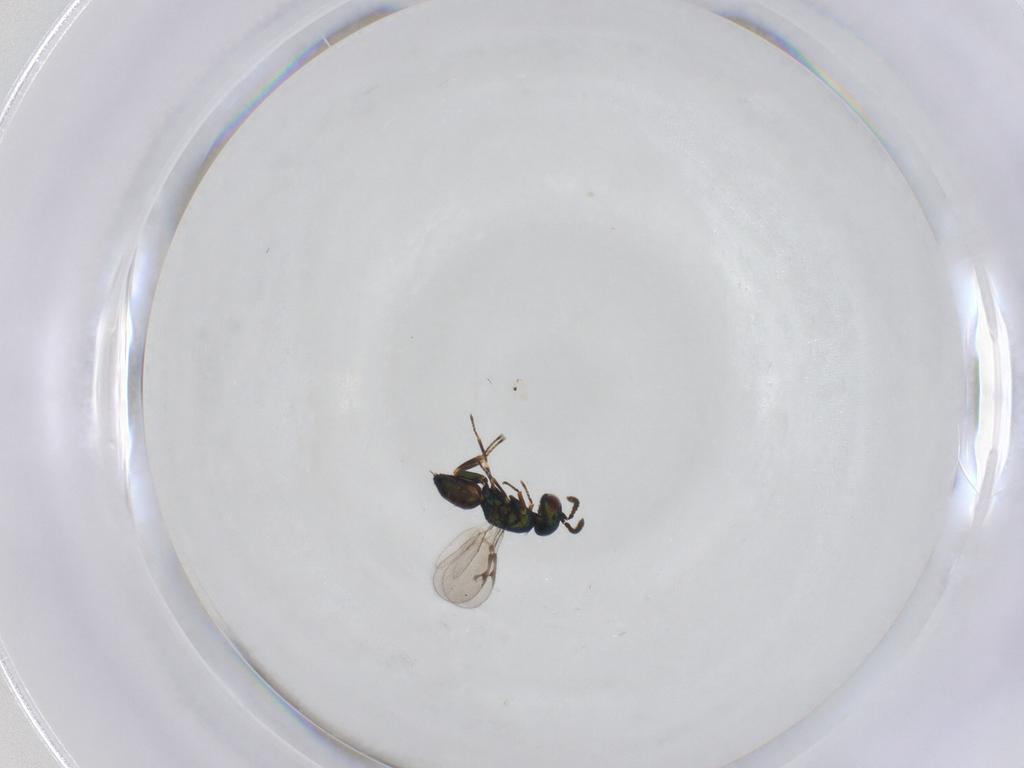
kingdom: Animalia
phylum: Arthropoda
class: Insecta
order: Hymenoptera
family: Pteromalidae
